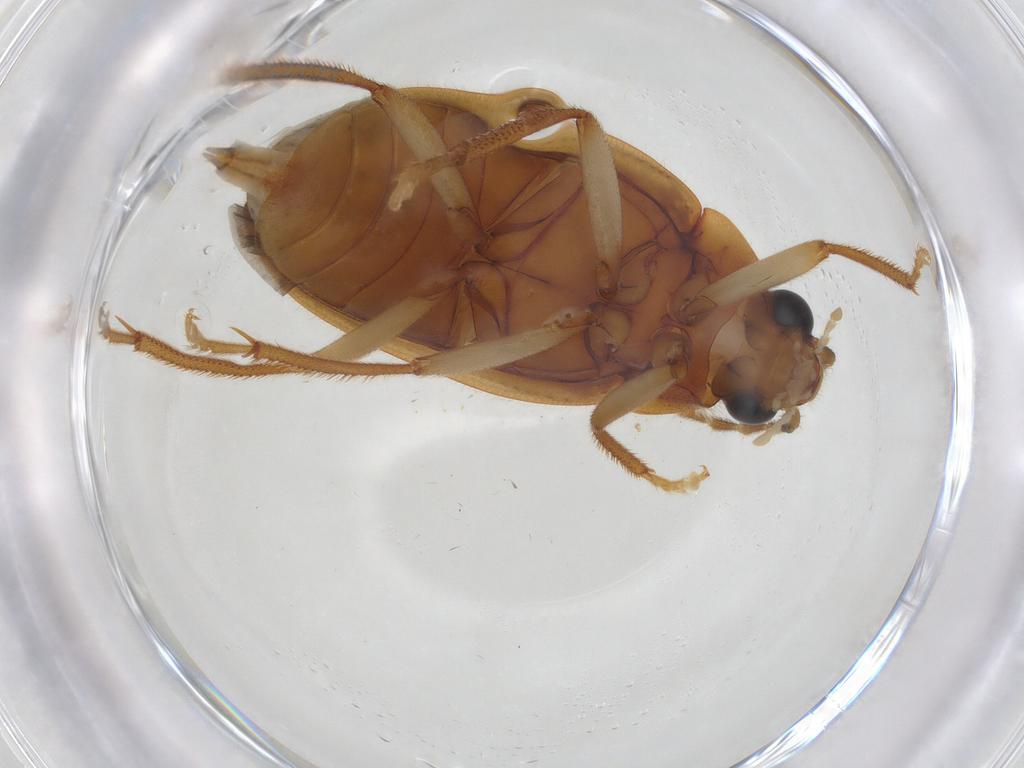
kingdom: Animalia
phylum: Arthropoda
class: Insecta
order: Coleoptera
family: Ptilodactylidae
